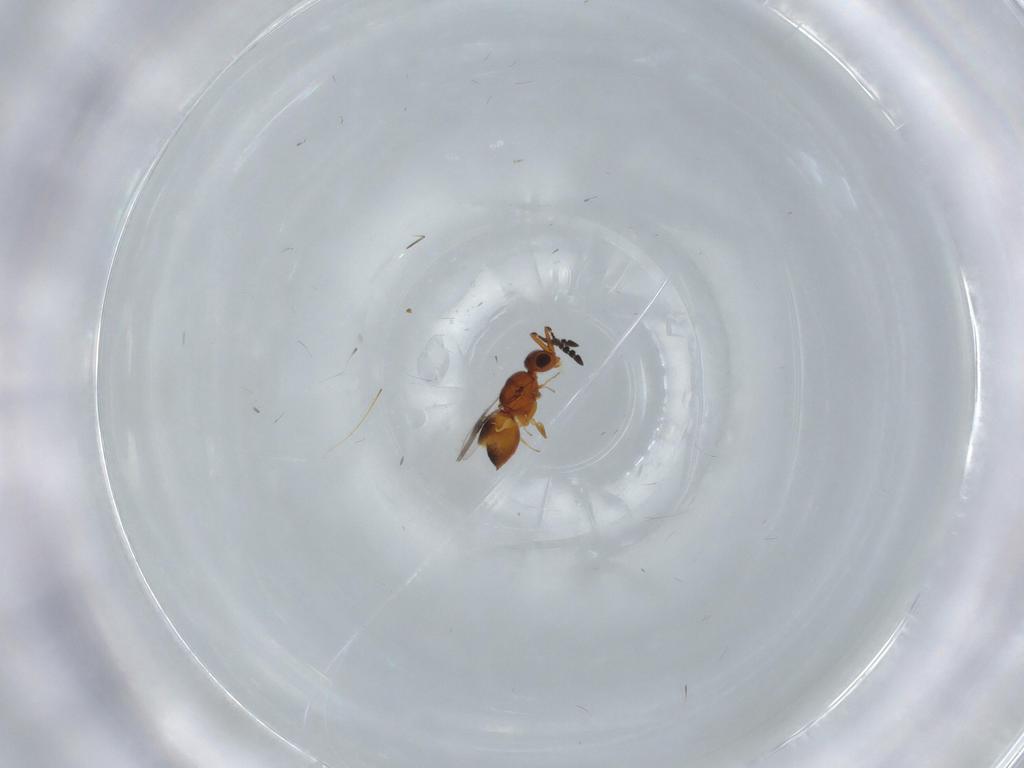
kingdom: Animalia
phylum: Arthropoda
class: Insecta
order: Hymenoptera
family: Ceraphronidae
